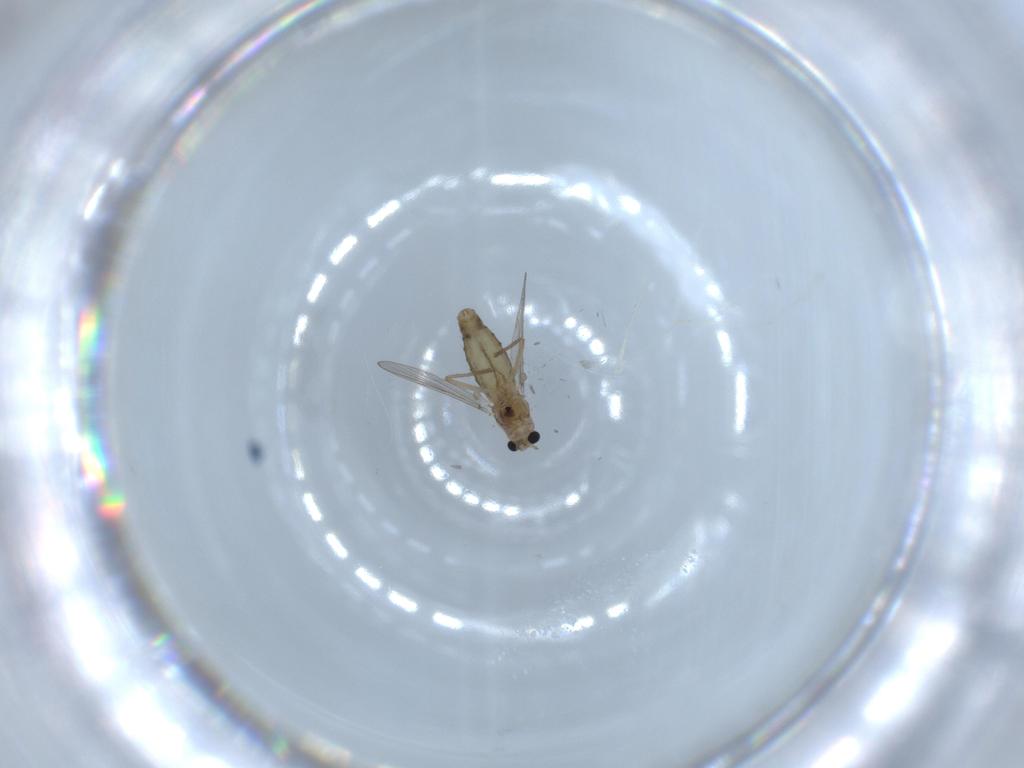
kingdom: Animalia
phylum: Arthropoda
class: Insecta
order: Diptera
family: Chironomidae
